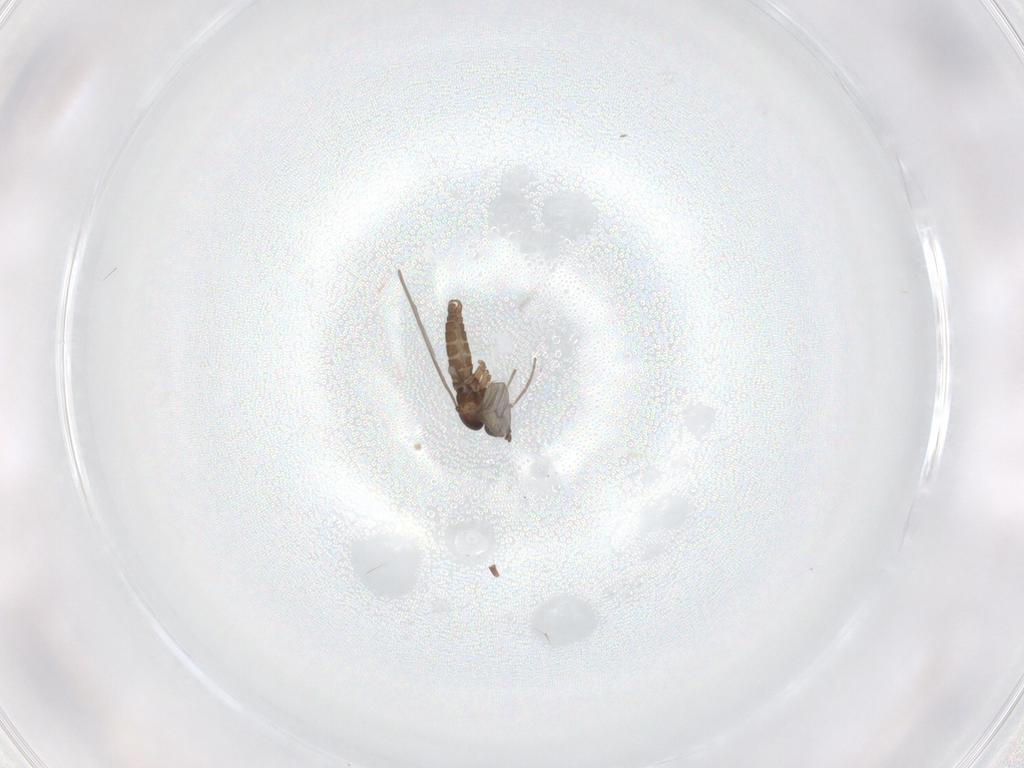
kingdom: Animalia
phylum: Arthropoda
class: Insecta
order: Diptera
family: Sciaridae
